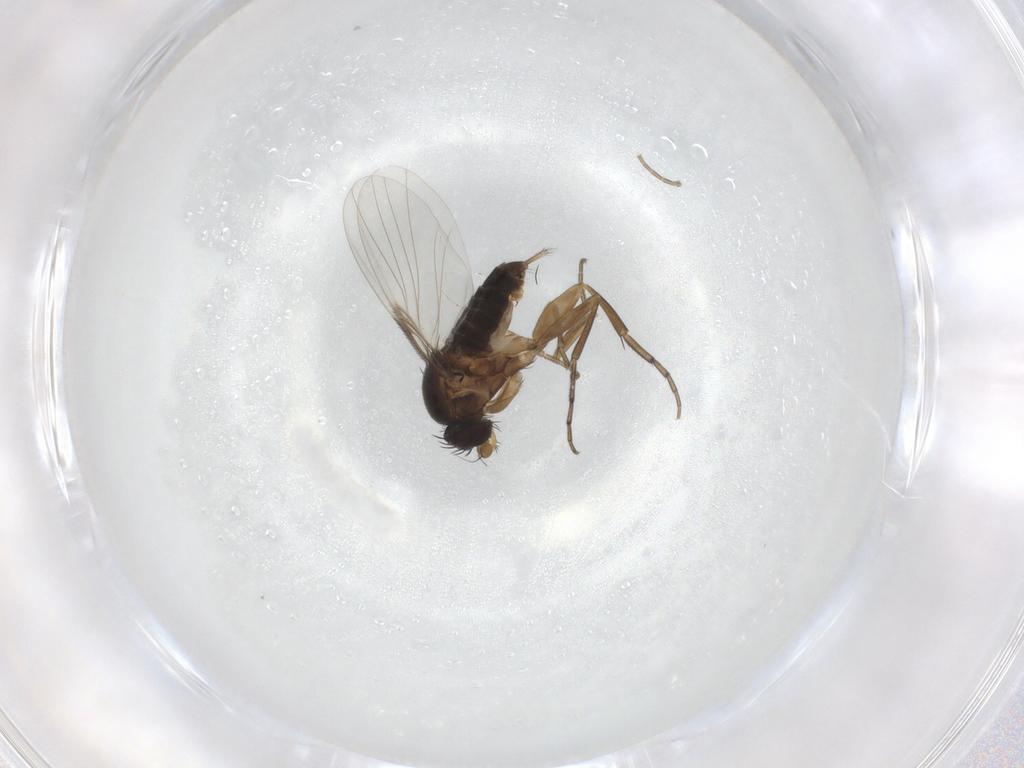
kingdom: Animalia
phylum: Arthropoda
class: Insecta
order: Diptera
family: Phoridae
